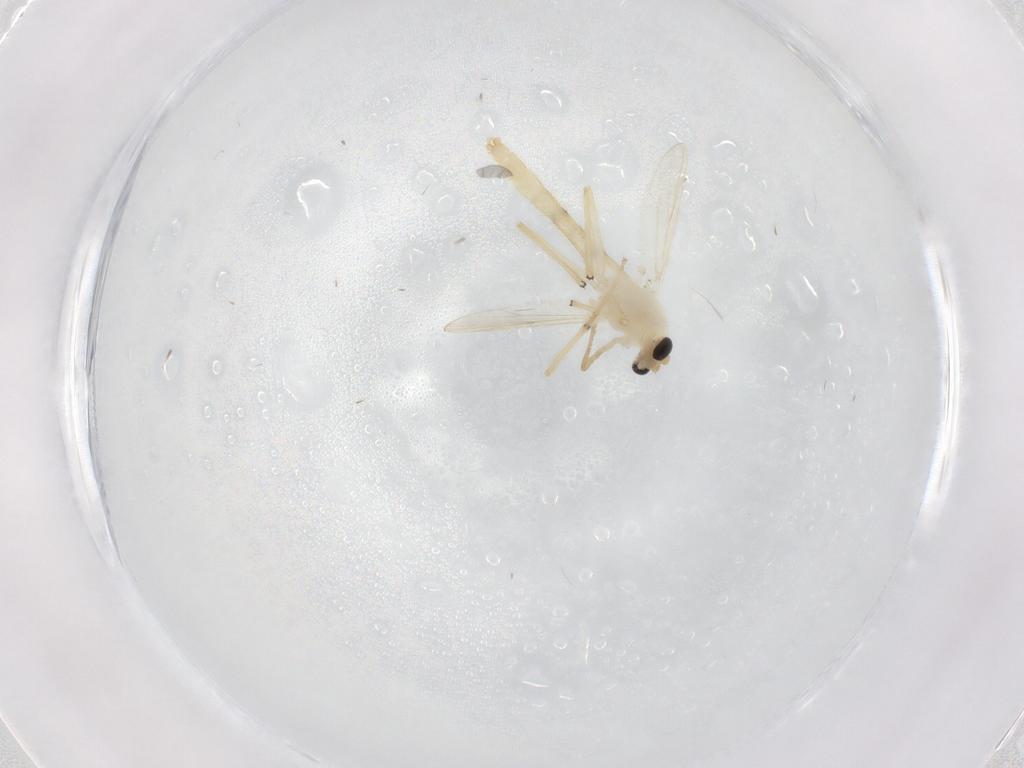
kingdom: Animalia
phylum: Arthropoda
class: Insecta
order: Diptera
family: Chironomidae
